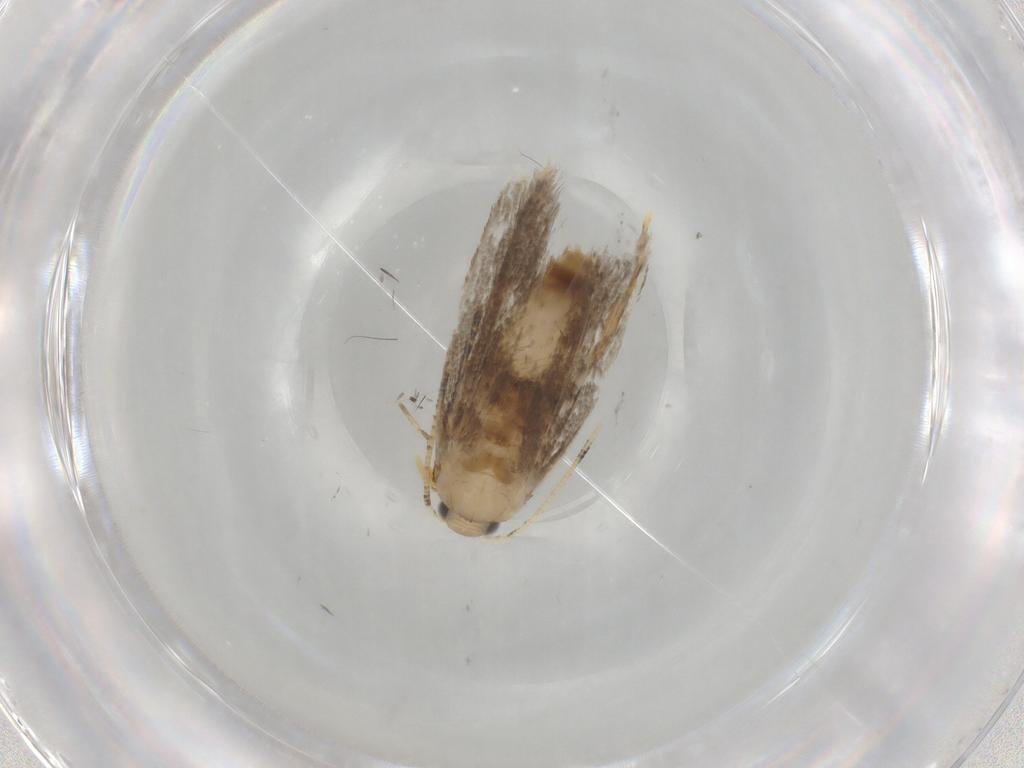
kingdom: Animalia
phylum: Arthropoda
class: Insecta
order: Lepidoptera
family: Dryadaulidae
